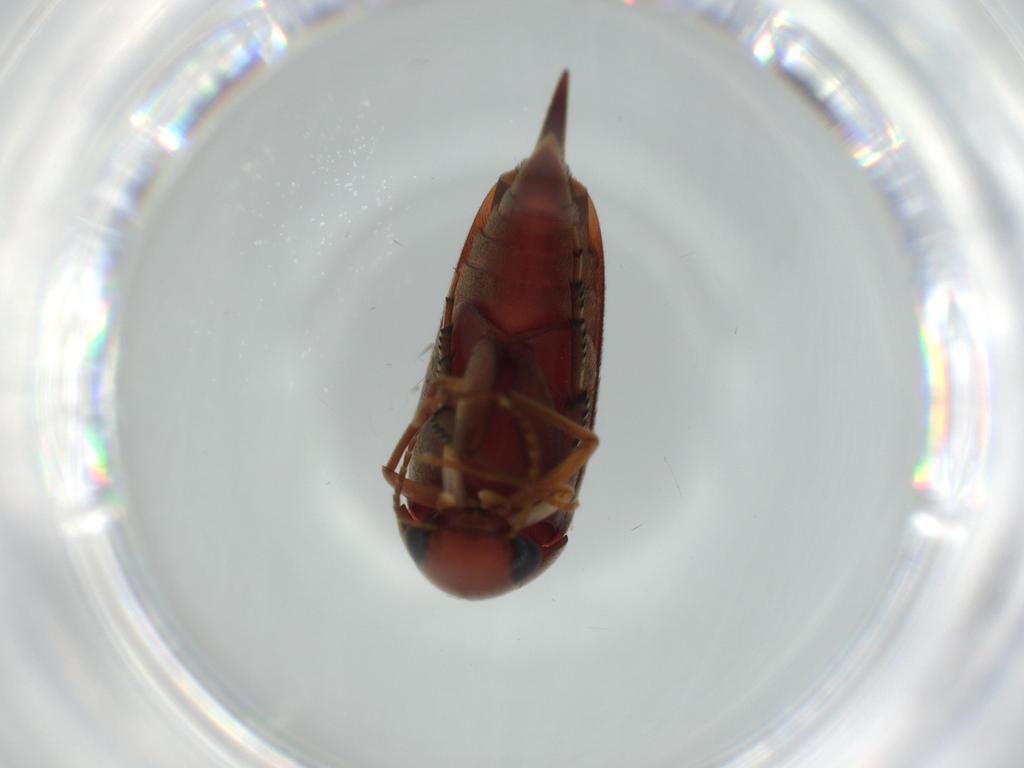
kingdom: Animalia
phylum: Arthropoda
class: Insecta
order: Coleoptera
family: Mordellidae
